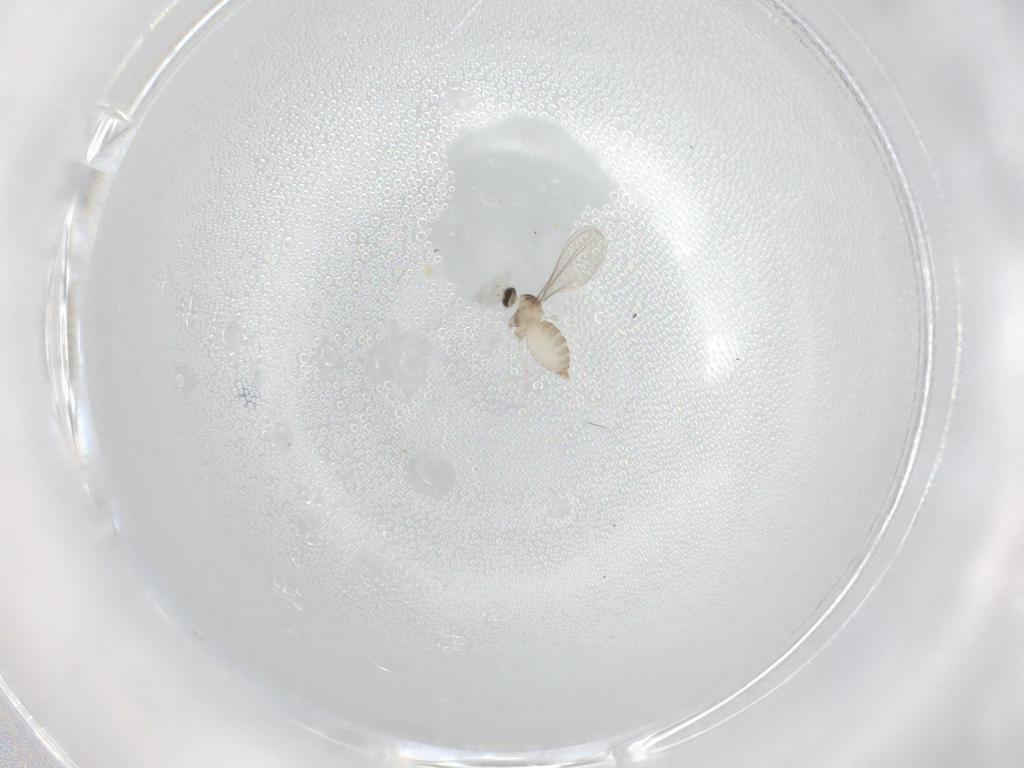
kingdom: Animalia
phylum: Arthropoda
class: Insecta
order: Diptera
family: Cecidomyiidae
